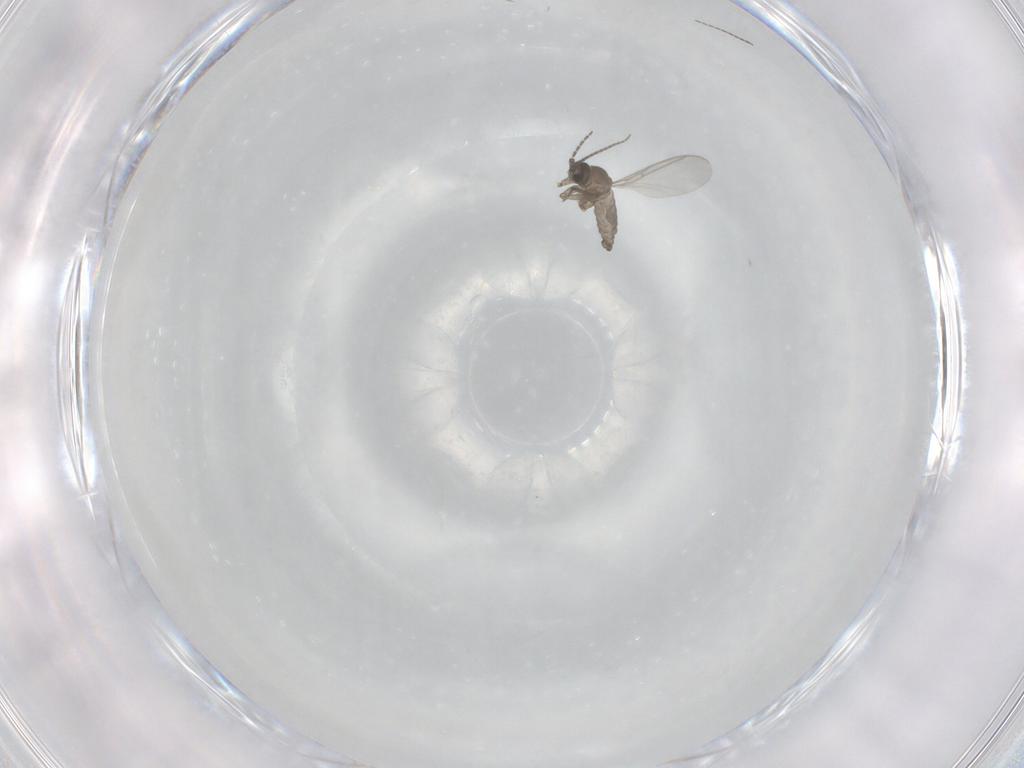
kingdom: Animalia
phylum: Arthropoda
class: Insecta
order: Diptera
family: Sciaridae
